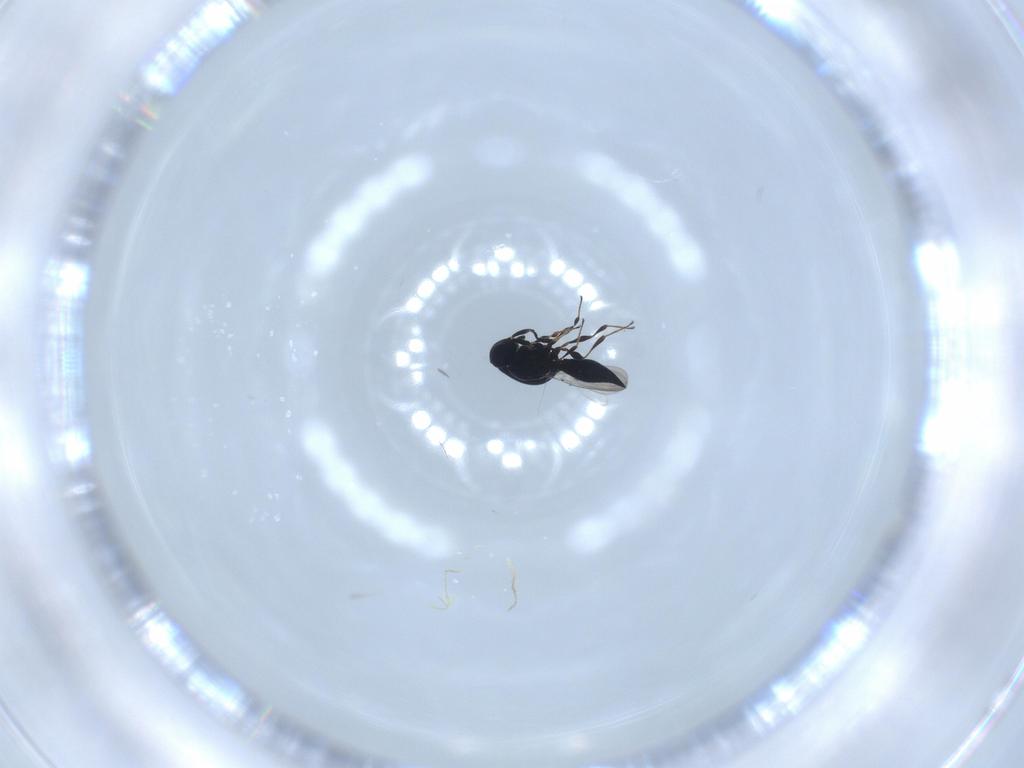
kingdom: Animalia
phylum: Arthropoda
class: Insecta
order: Hymenoptera
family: Platygastridae
